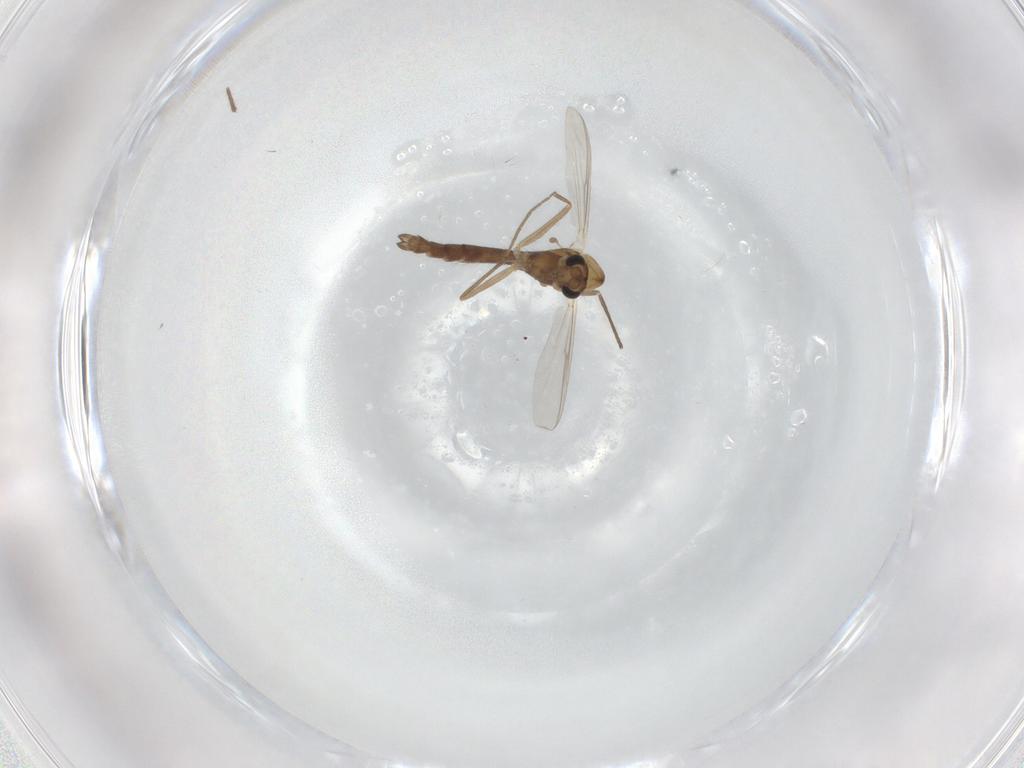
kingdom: Animalia
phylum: Arthropoda
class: Insecta
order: Diptera
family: Chironomidae
